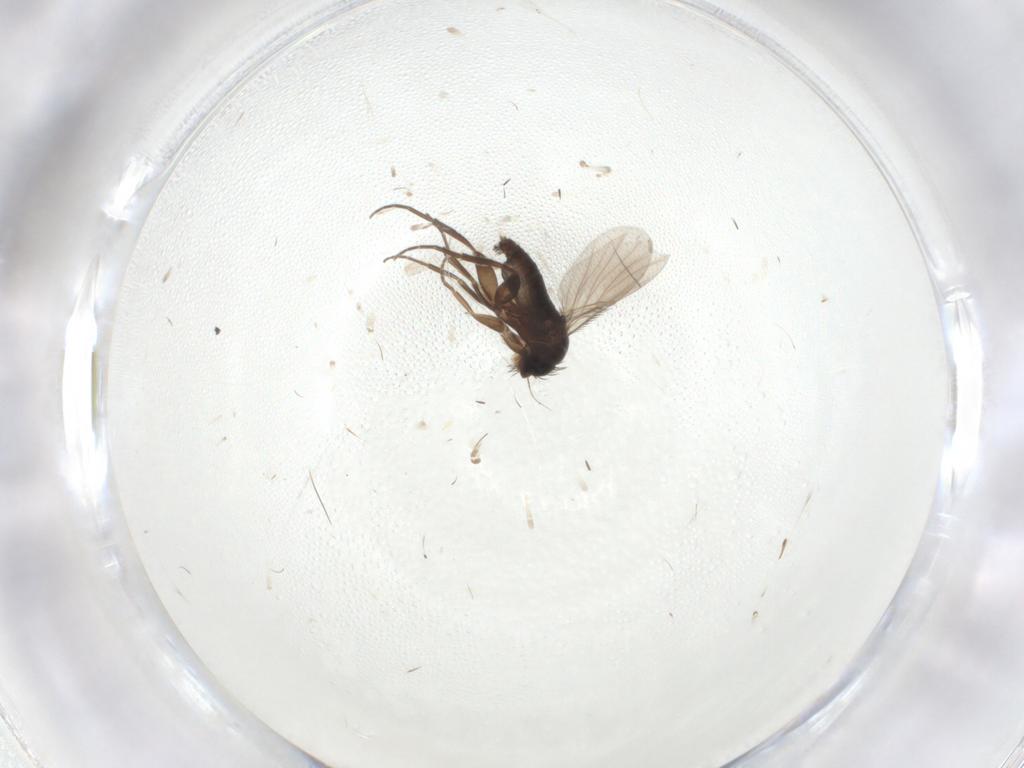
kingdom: Animalia
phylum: Arthropoda
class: Insecta
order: Diptera
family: Phoridae
